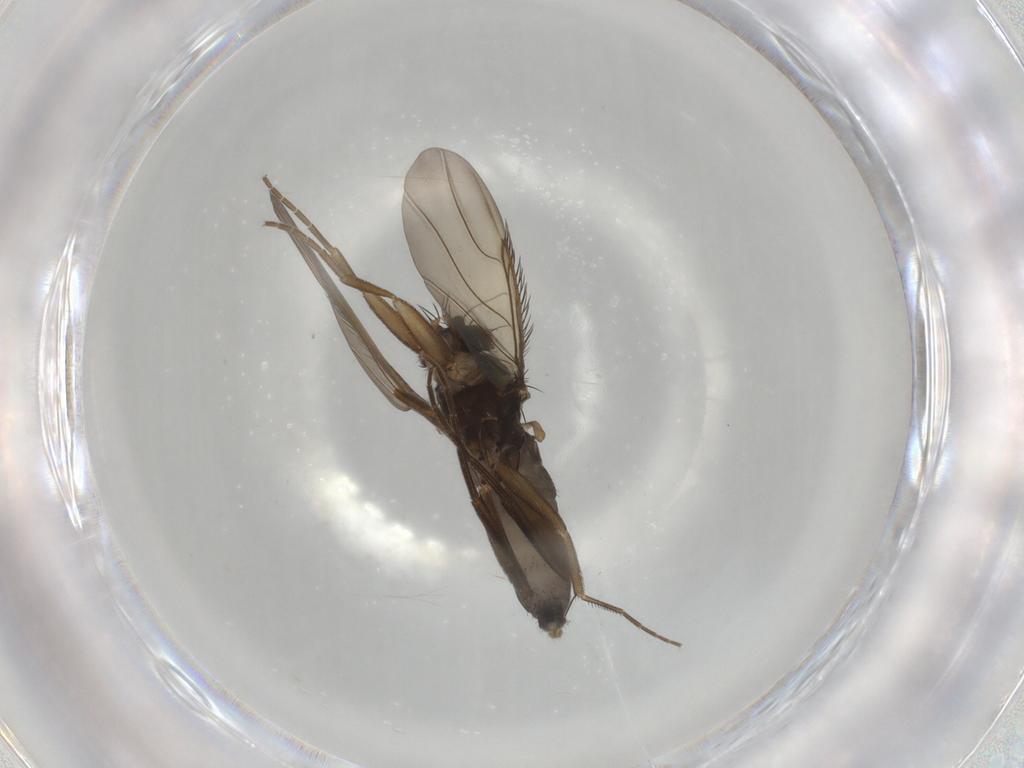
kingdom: Animalia
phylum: Arthropoda
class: Insecta
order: Diptera
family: Phoridae
